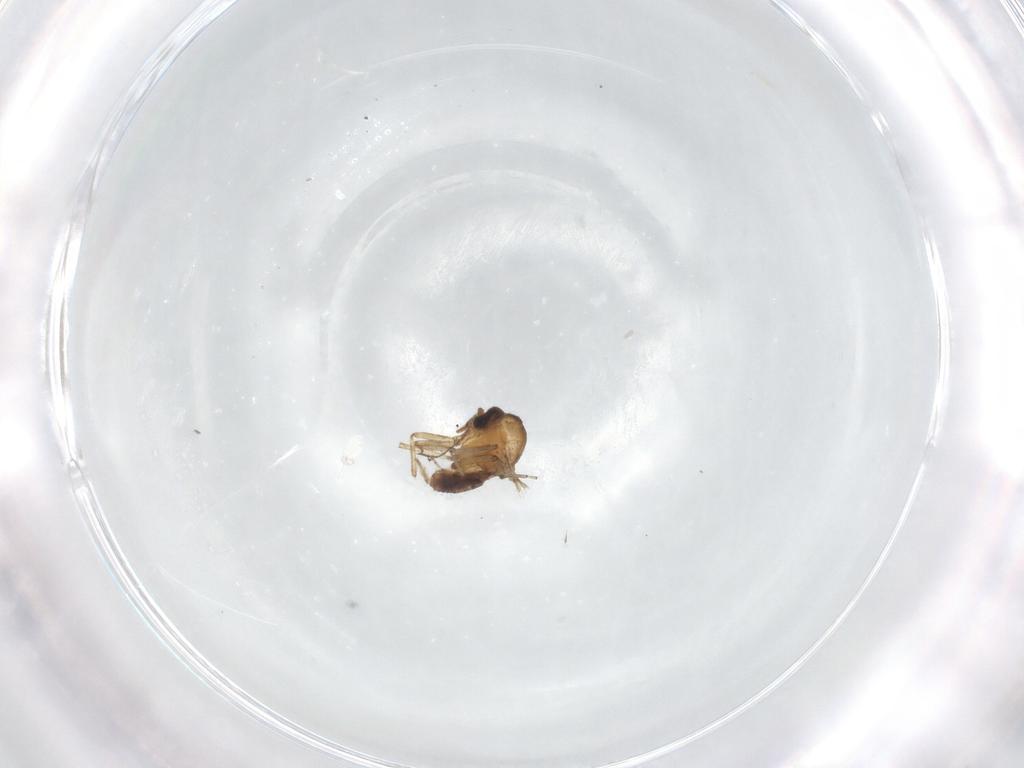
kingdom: Animalia
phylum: Arthropoda
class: Insecta
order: Diptera
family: Ceratopogonidae
